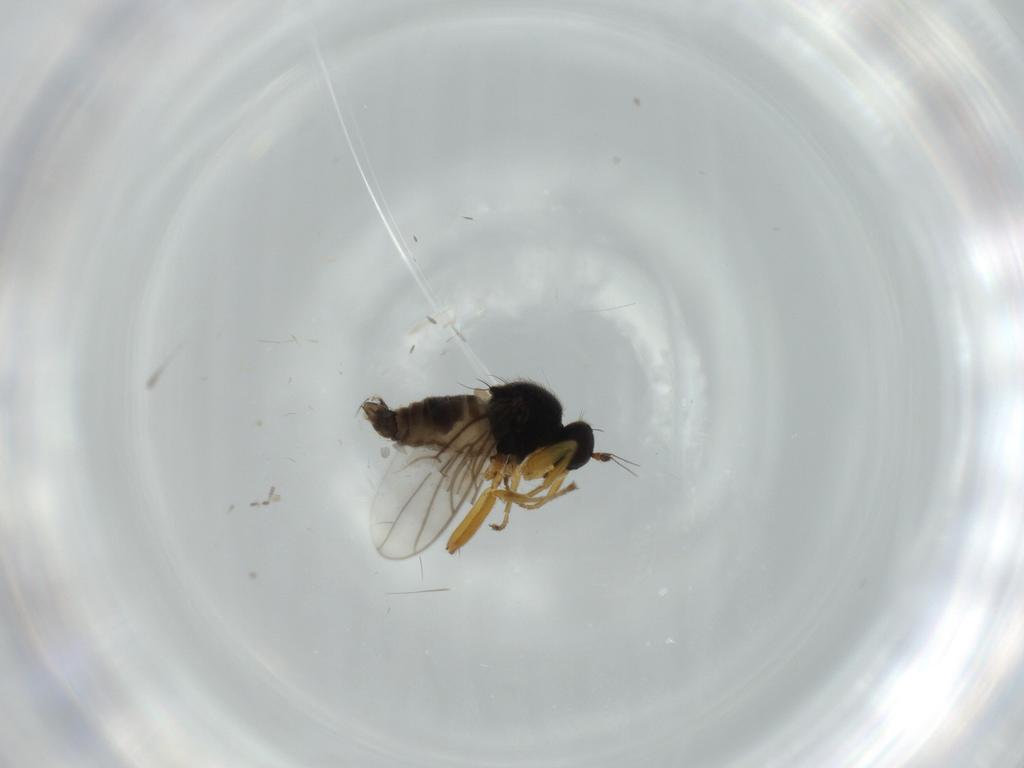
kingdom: Animalia
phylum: Arthropoda
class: Insecta
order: Diptera
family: Hybotidae
